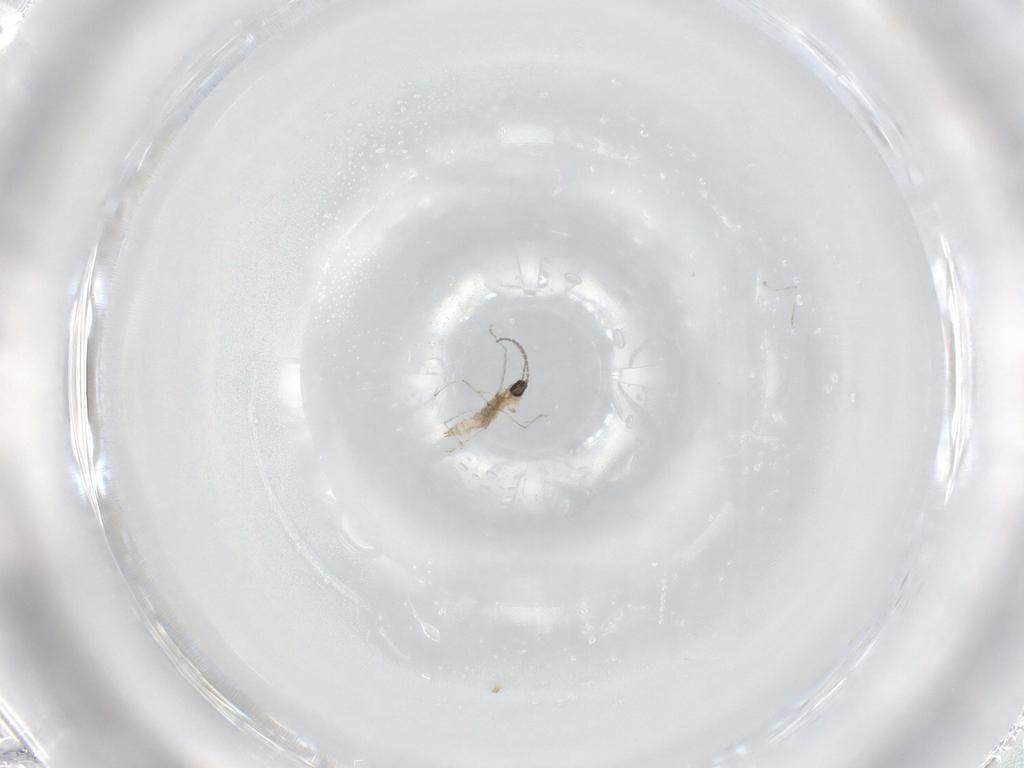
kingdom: Animalia
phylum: Arthropoda
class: Insecta
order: Diptera
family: Cecidomyiidae
